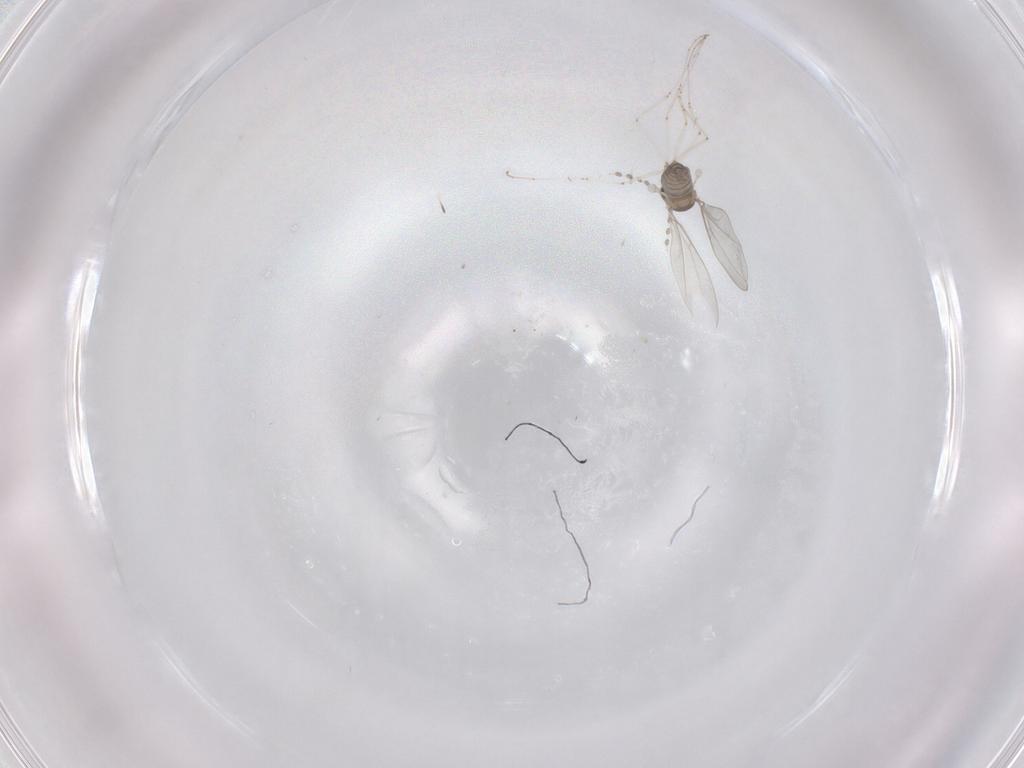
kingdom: Animalia
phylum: Arthropoda
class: Insecta
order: Diptera
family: Cecidomyiidae
